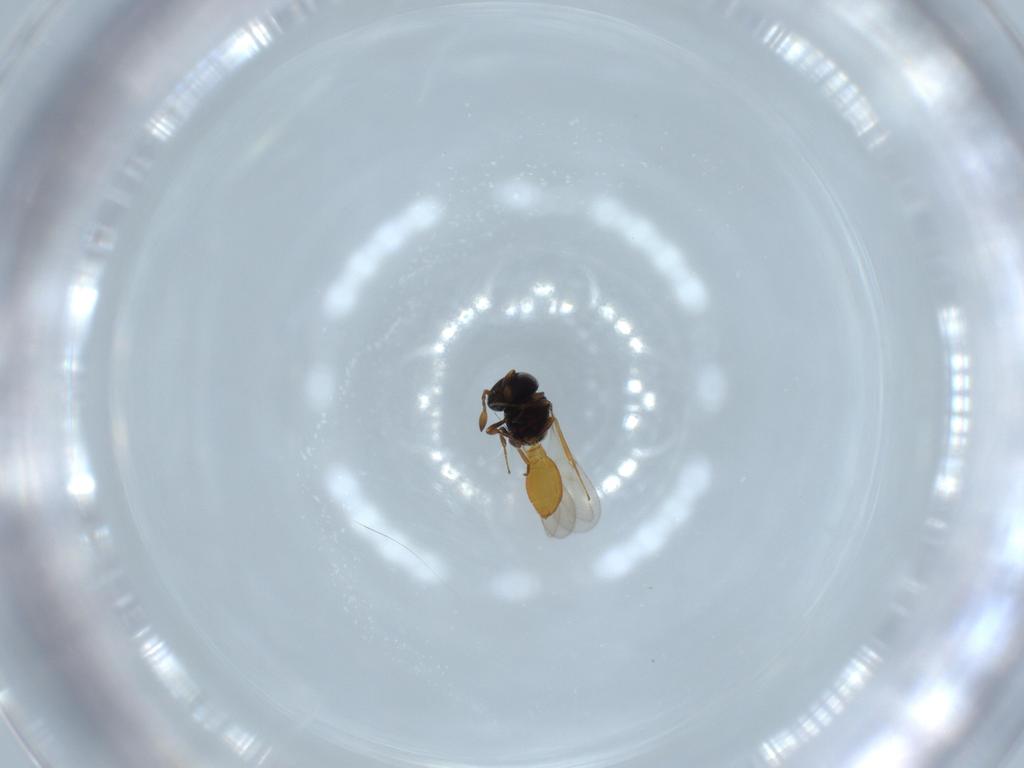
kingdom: Animalia
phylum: Arthropoda
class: Insecta
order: Hymenoptera
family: Scelionidae
